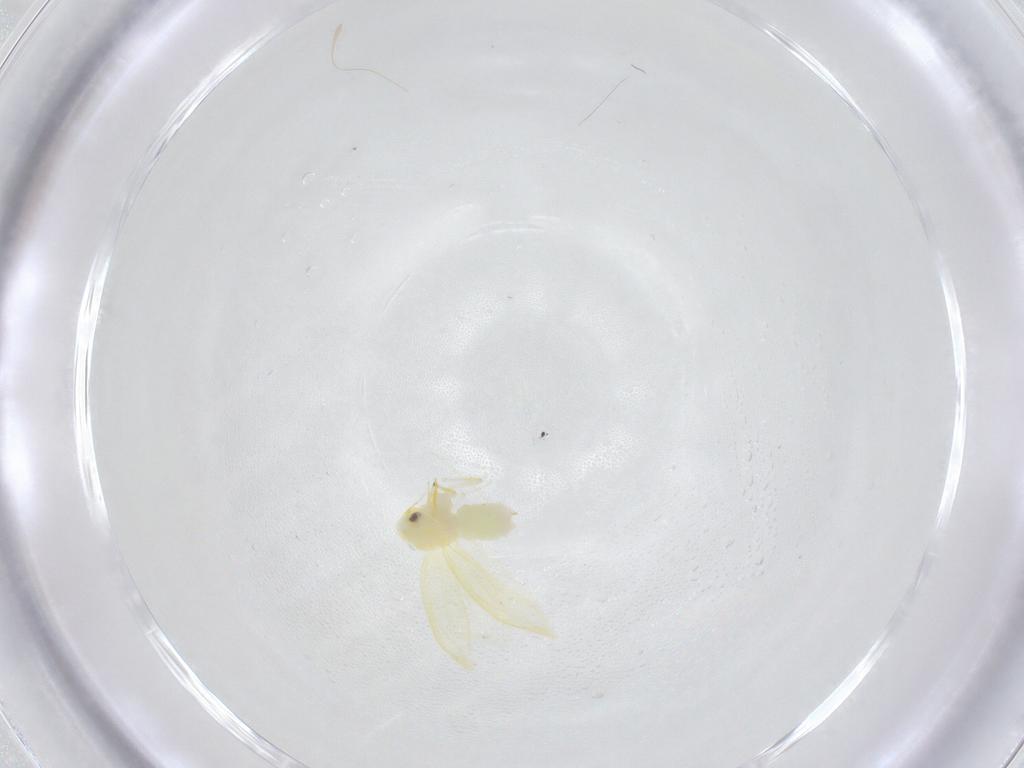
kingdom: Animalia
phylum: Arthropoda
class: Insecta
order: Hemiptera
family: Aleyrodidae
